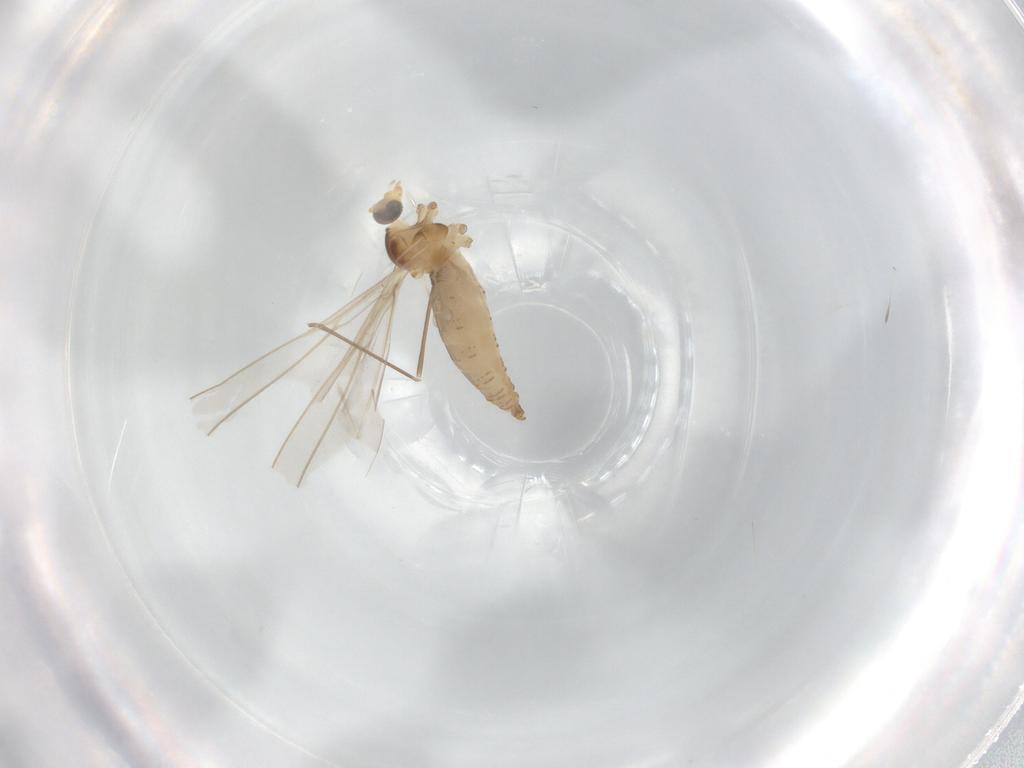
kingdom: Animalia
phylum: Arthropoda
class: Insecta
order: Diptera
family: Cecidomyiidae
